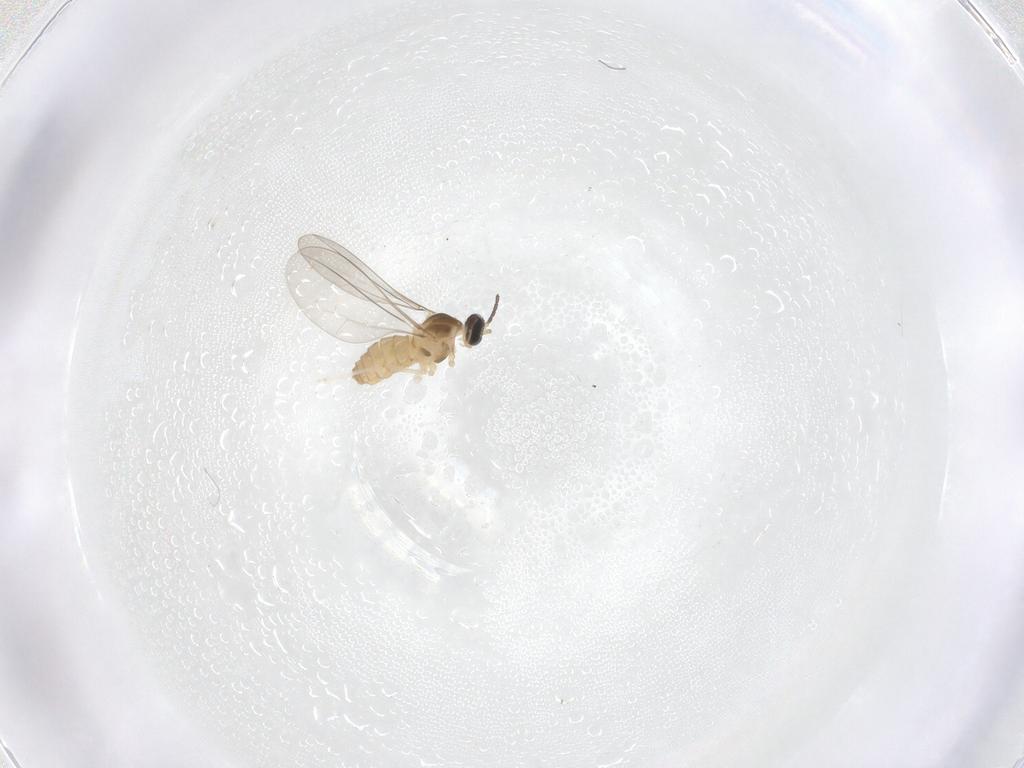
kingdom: Animalia
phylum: Arthropoda
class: Insecta
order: Diptera
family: Cecidomyiidae
